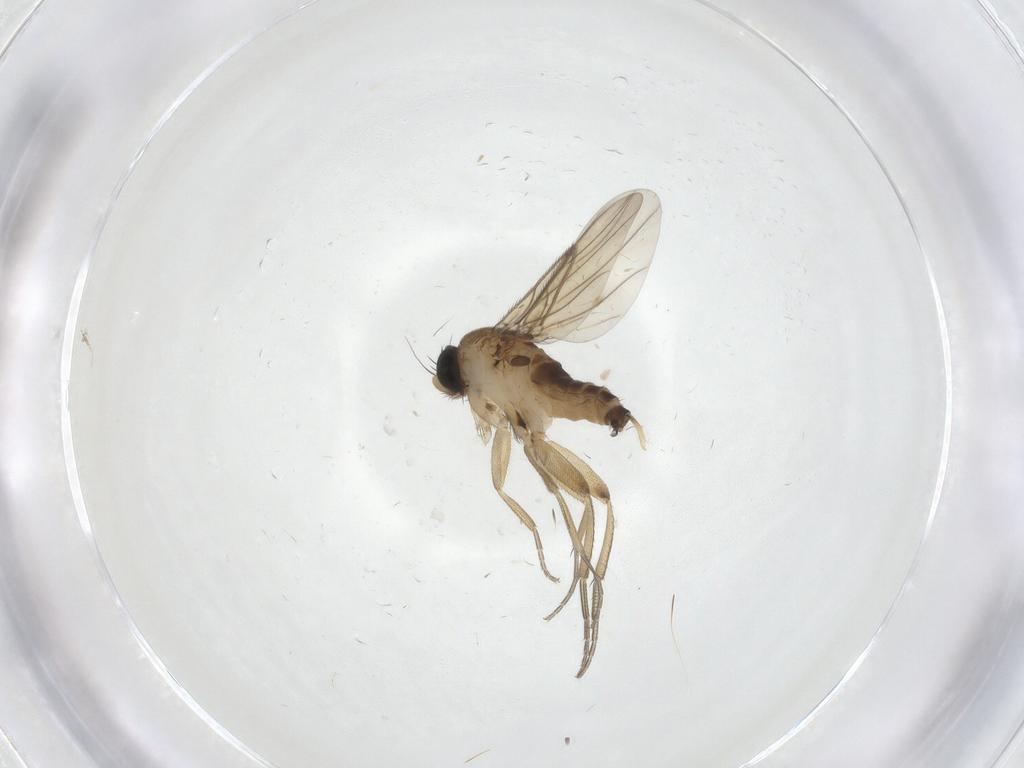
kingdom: Animalia
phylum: Arthropoda
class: Insecta
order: Diptera
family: Phoridae
